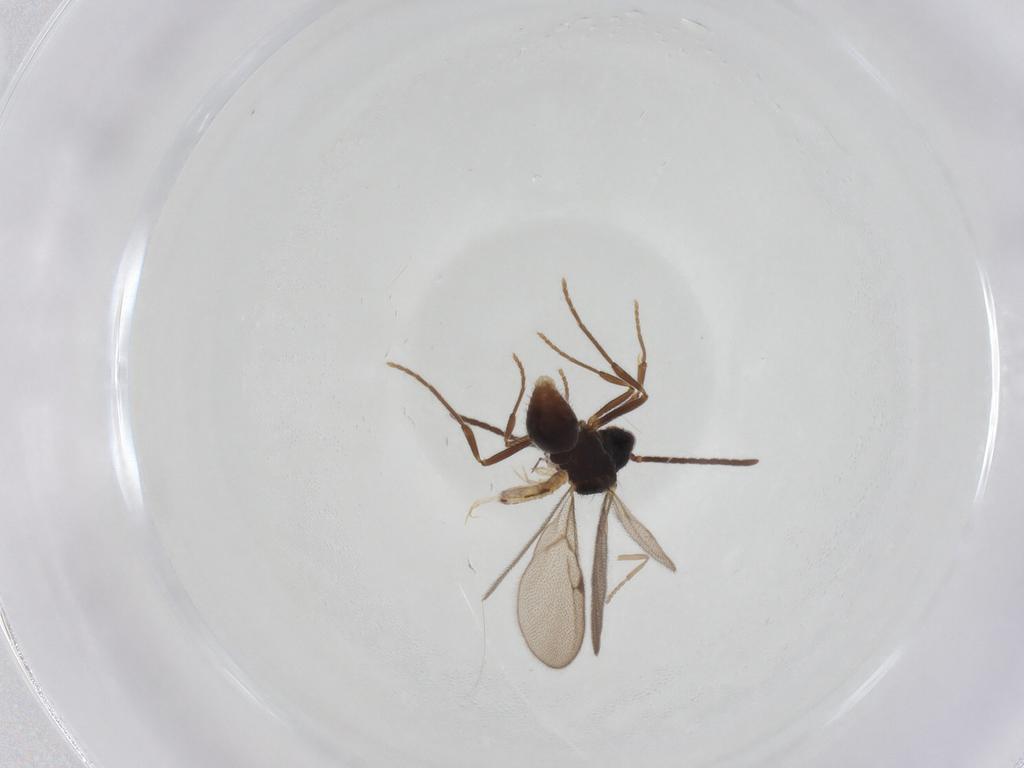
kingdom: Animalia
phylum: Arthropoda
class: Insecta
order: Hymenoptera
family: Formicidae
